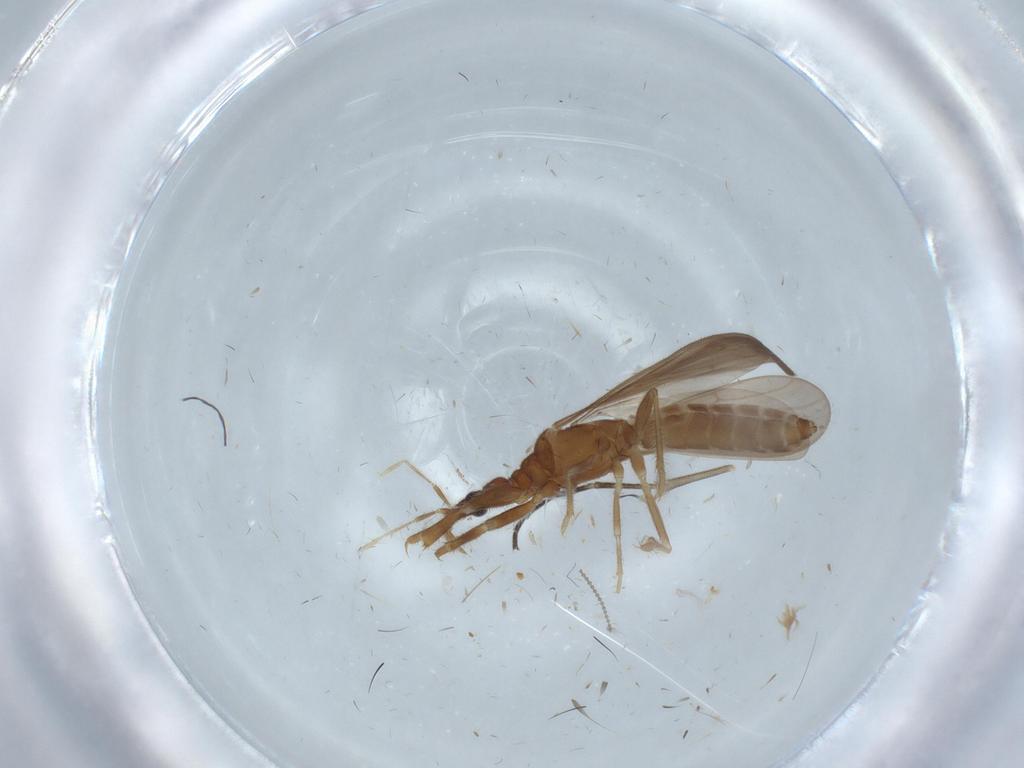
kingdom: Animalia
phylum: Arthropoda
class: Insecta
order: Hemiptera
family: Enicocephalidae
